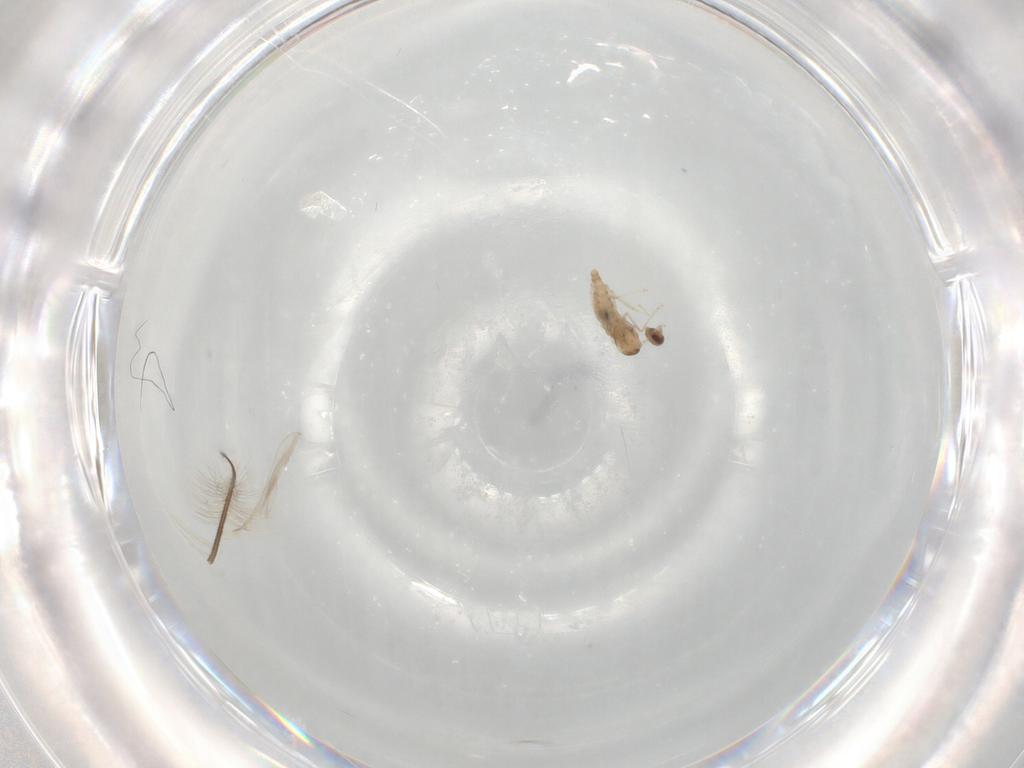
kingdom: Animalia
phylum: Arthropoda
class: Insecta
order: Diptera
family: Cecidomyiidae
